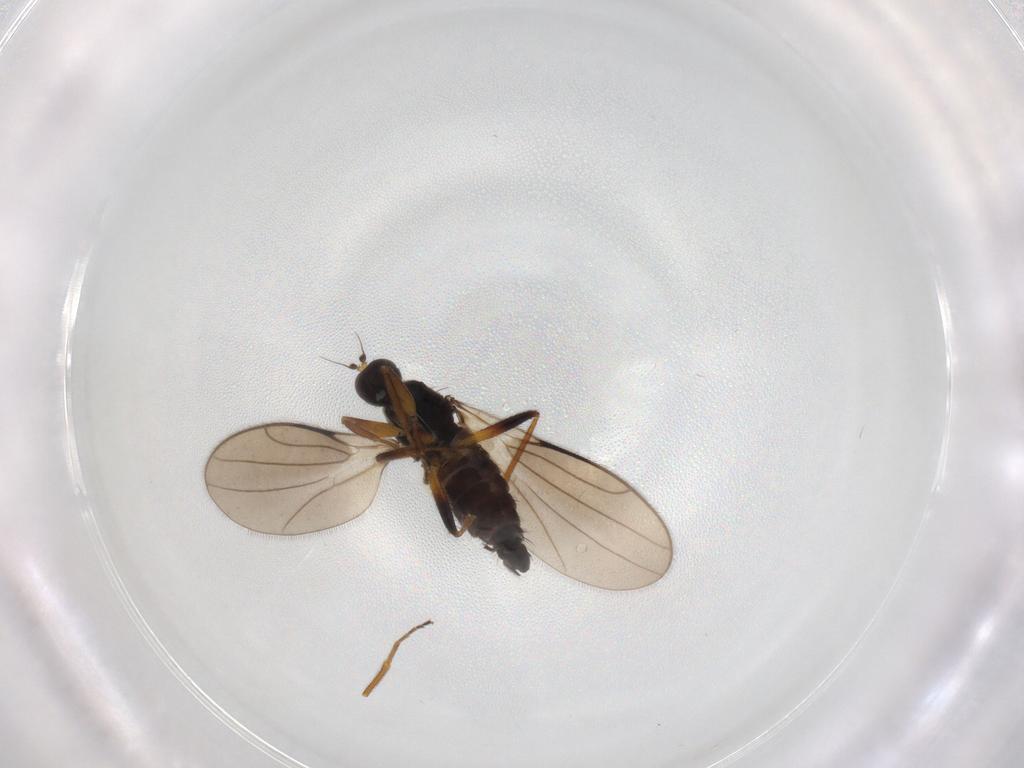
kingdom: Animalia
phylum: Arthropoda
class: Insecta
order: Diptera
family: Hybotidae
